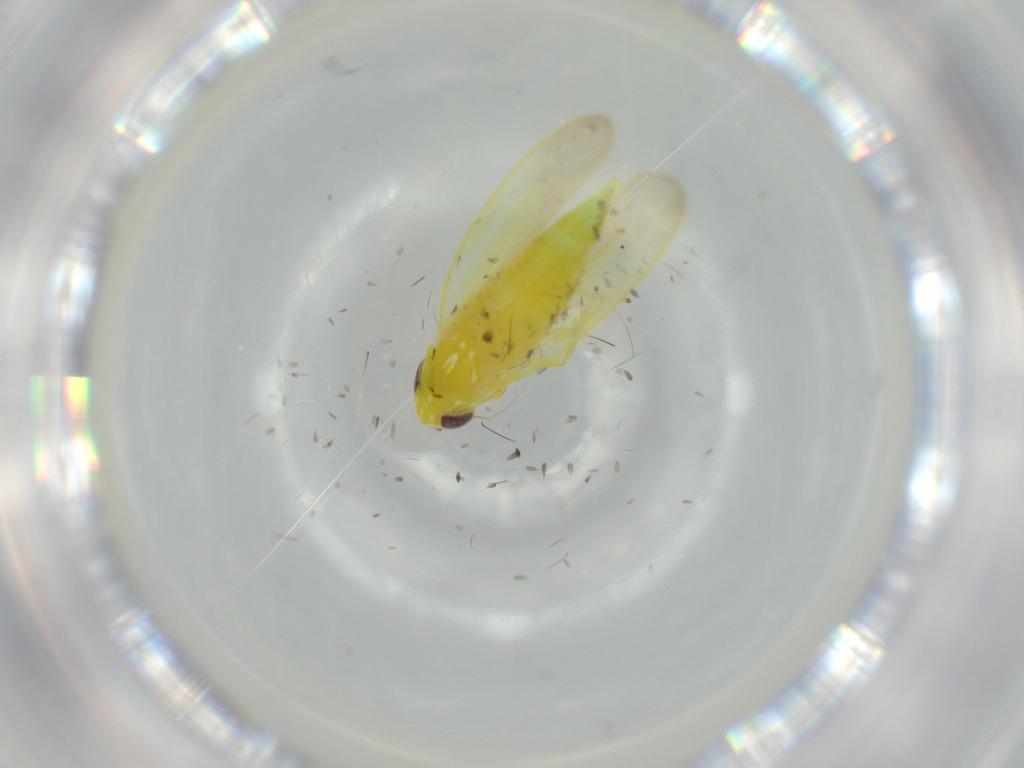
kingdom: Animalia
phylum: Arthropoda
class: Insecta
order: Hemiptera
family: Cicadellidae
